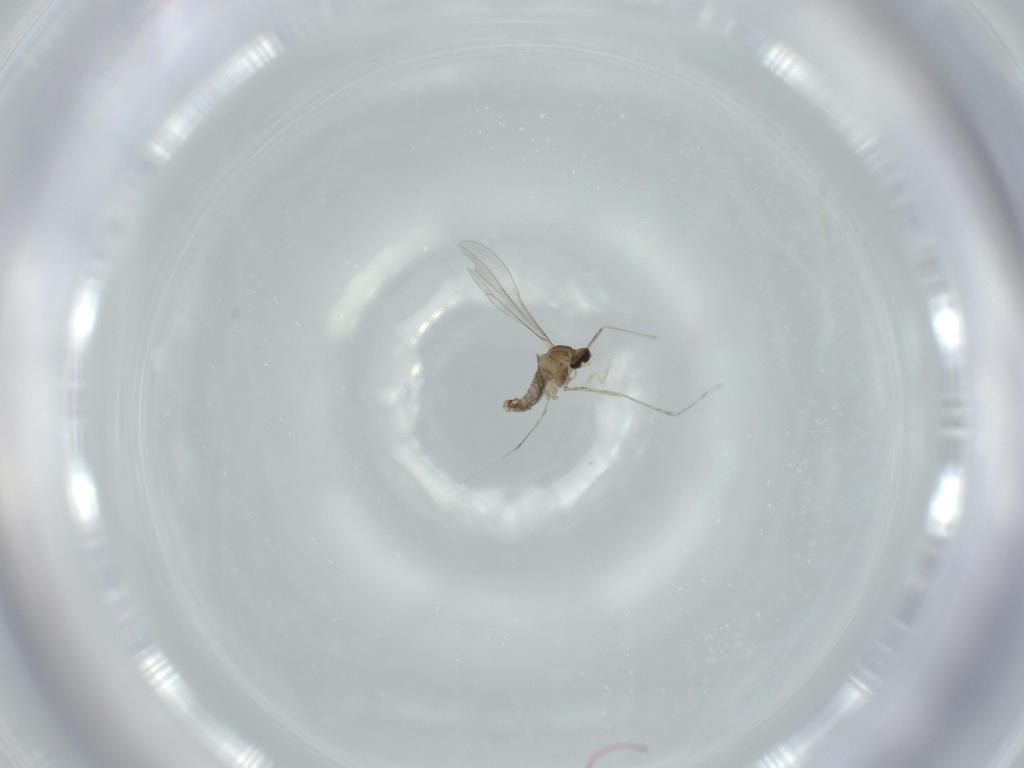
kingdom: Animalia
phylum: Arthropoda
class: Insecta
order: Diptera
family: Cecidomyiidae
